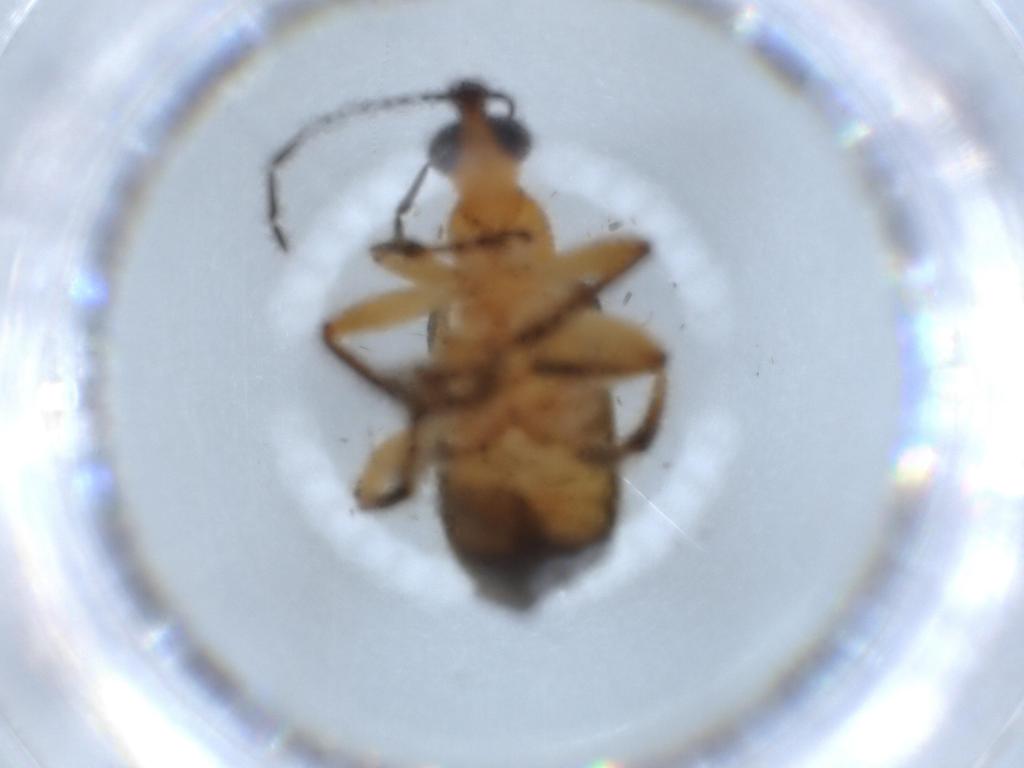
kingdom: Animalia
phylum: Arthropoda
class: Insecta
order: Coleoptera
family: Attelabidae
